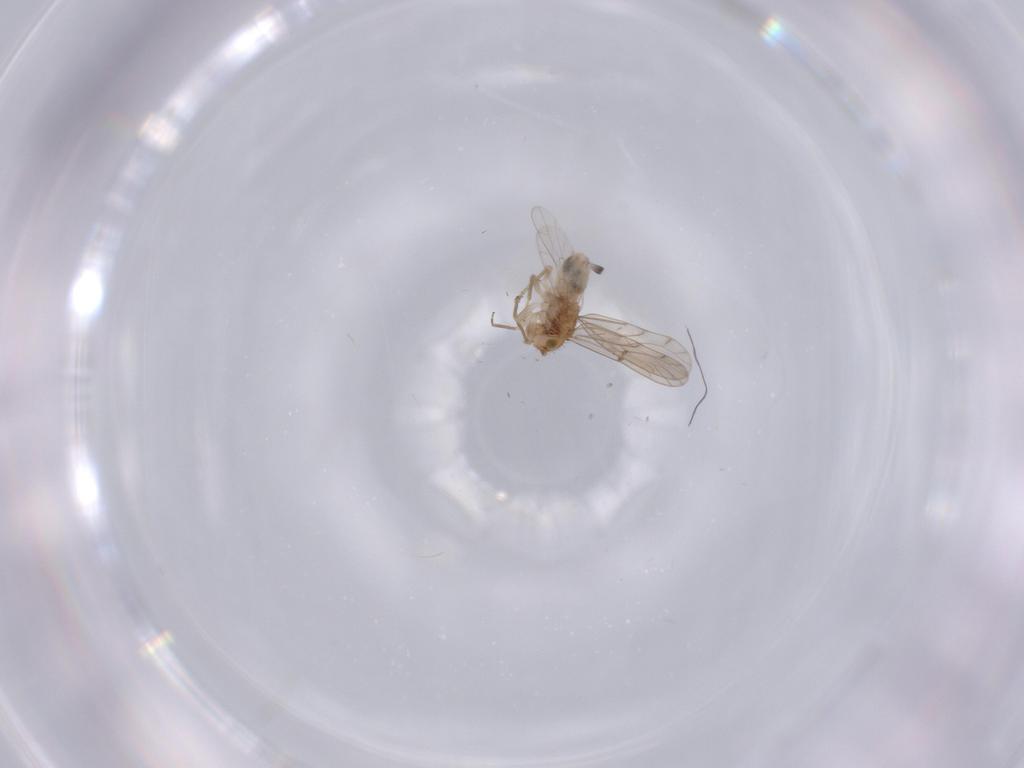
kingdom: Animalia
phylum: Arthropoda
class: Insecta
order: Psocodea
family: Ectopsocidae
